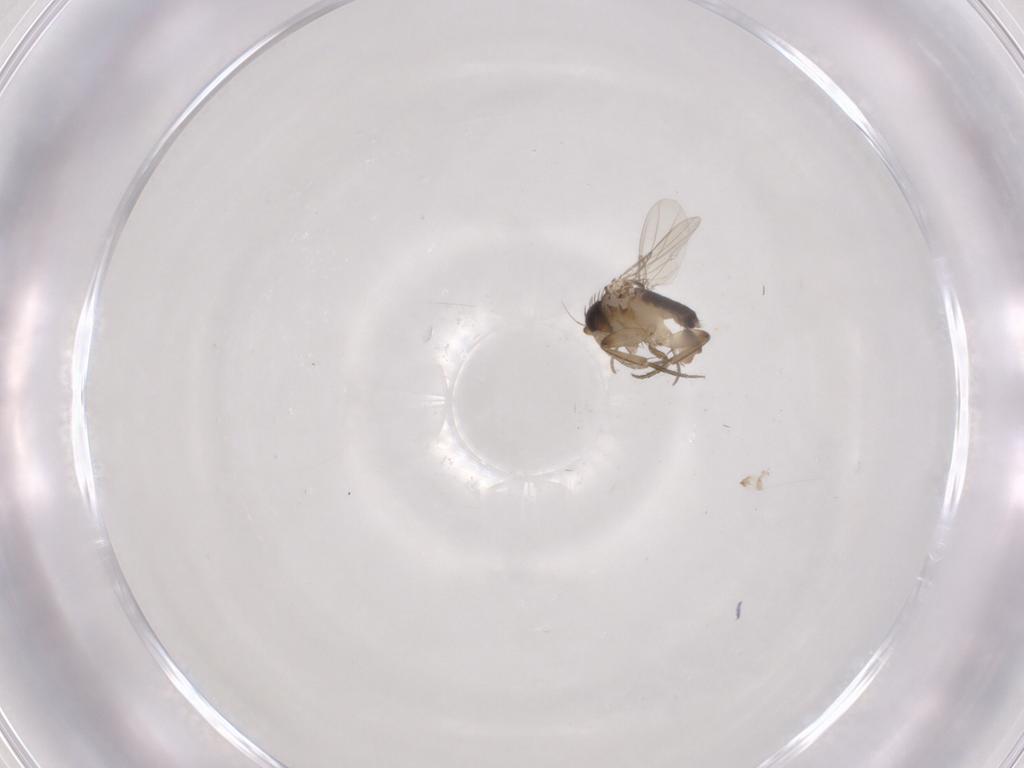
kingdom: Animalia
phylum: Arthropoda
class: Insecta
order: Diptera
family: Phoridae
